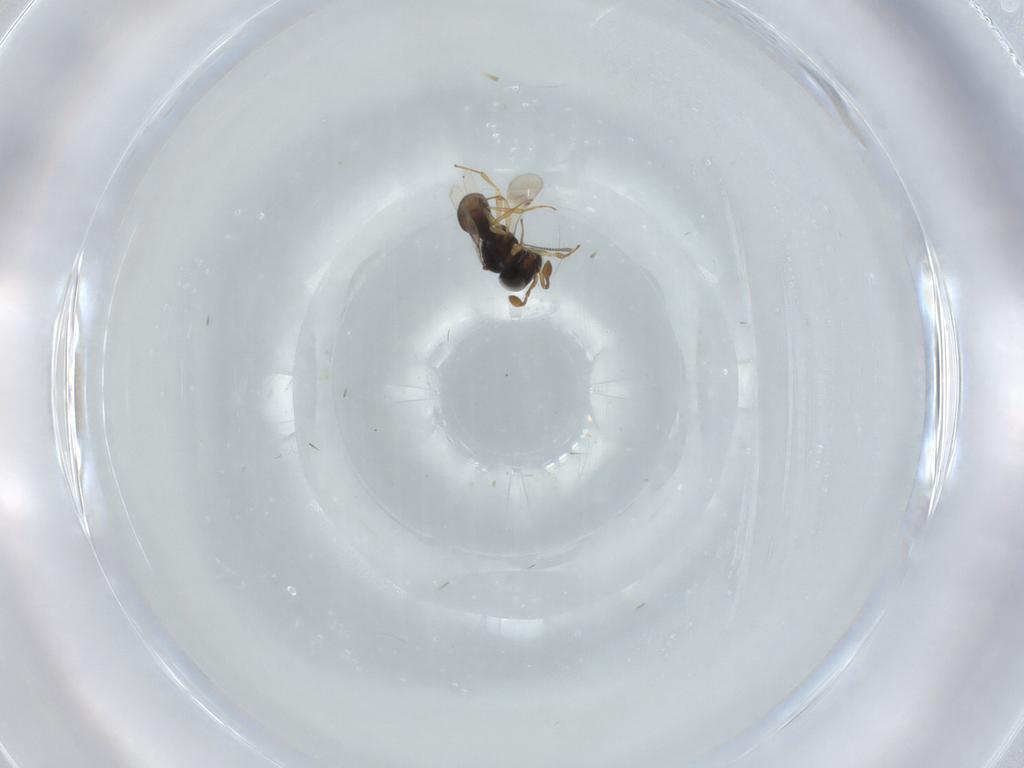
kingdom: Animalia
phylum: Arthropoda
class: Insecta
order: Hymenoptera
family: Scelionidae
